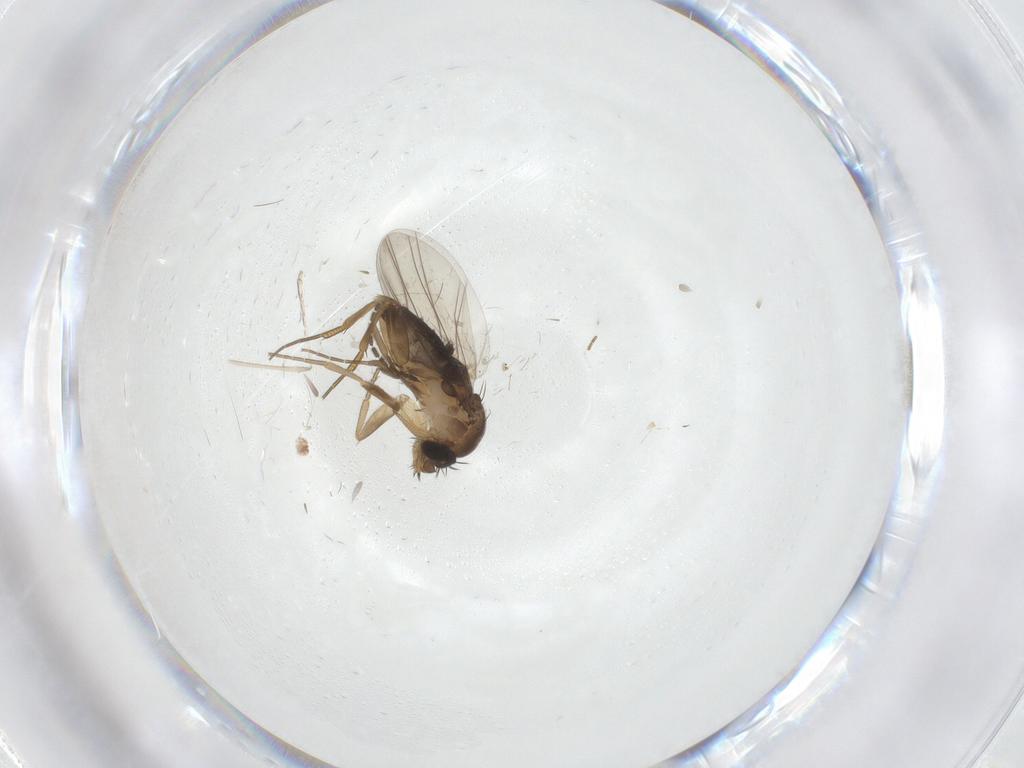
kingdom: Animalia
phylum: Arthropoda
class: Insecta
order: Diptera
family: Phoridae
